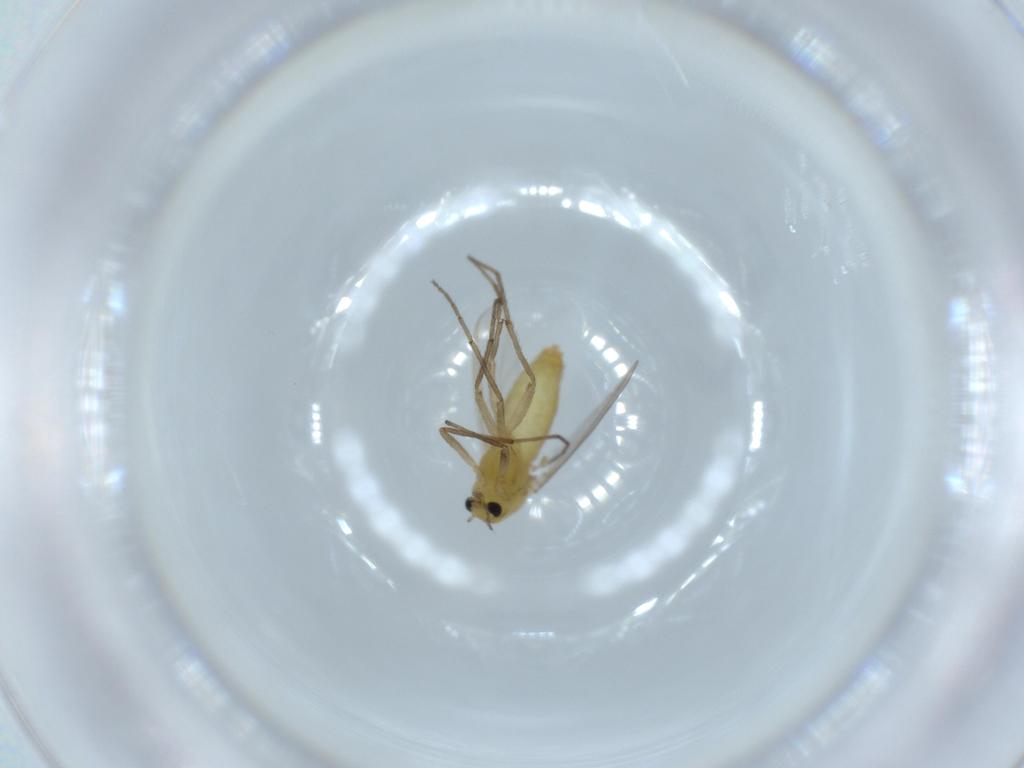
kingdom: Animalia
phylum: Arthropoda
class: Insecta
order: Diptera
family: Chironomidae
